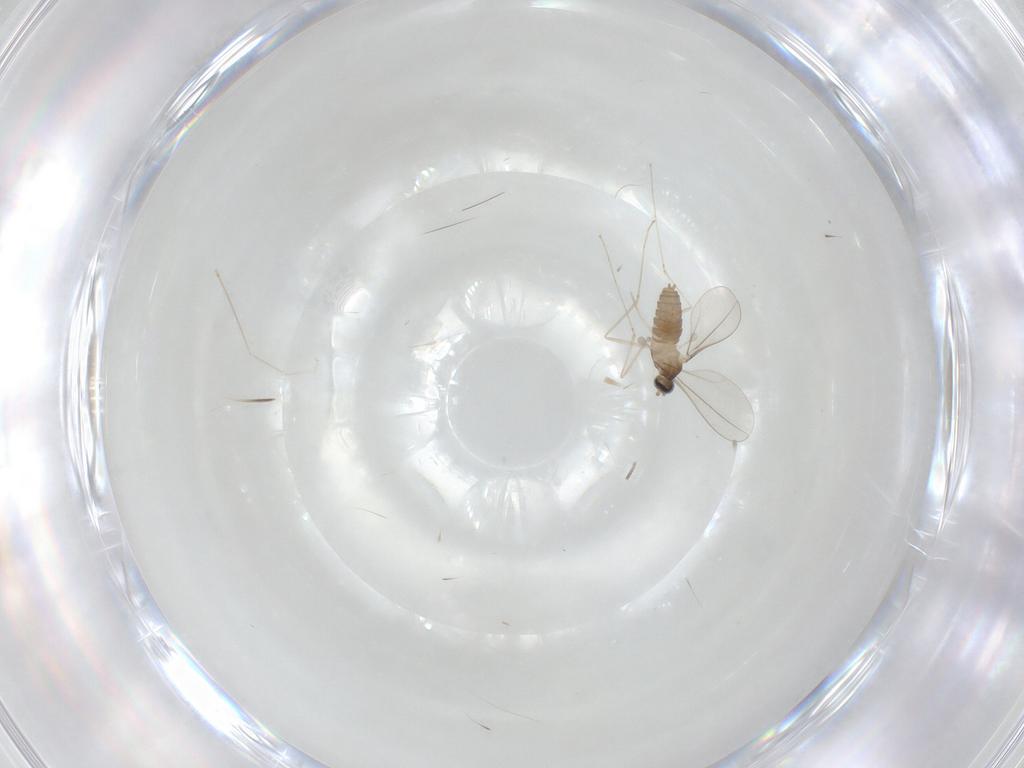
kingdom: Animalia
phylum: Arthropoda
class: Insecta
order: Diptera
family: Cecidomyiidae
